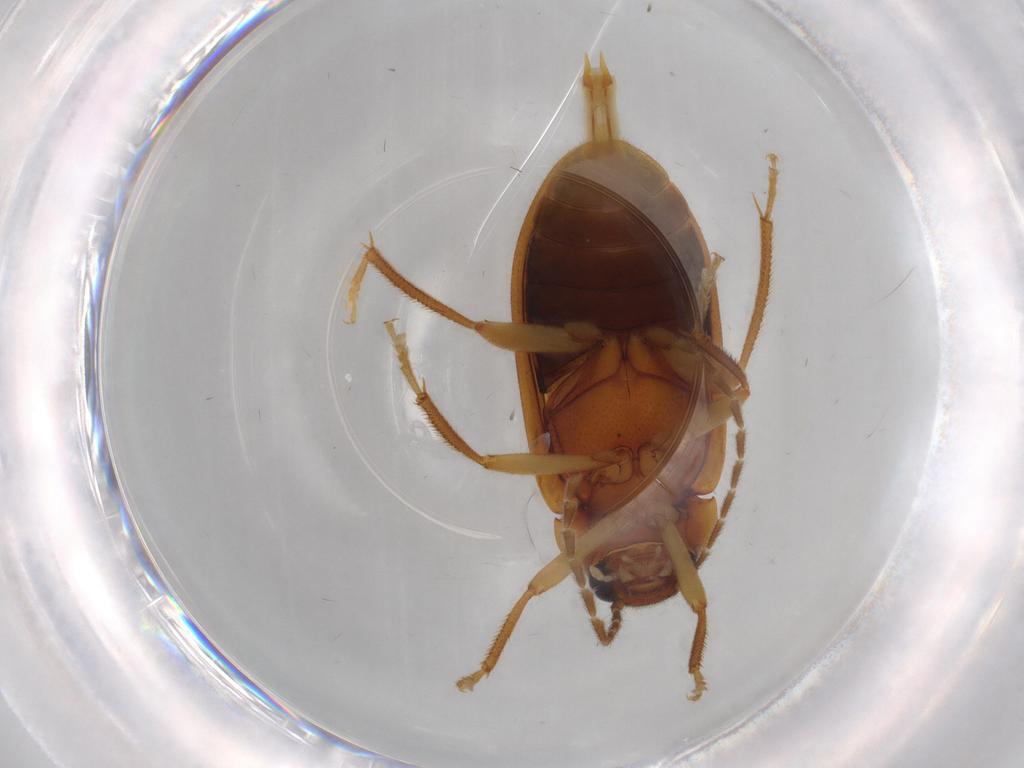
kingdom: Animalia
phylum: Arthropoda
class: Insecta
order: Coleoptera
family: Ptilodactylidae
